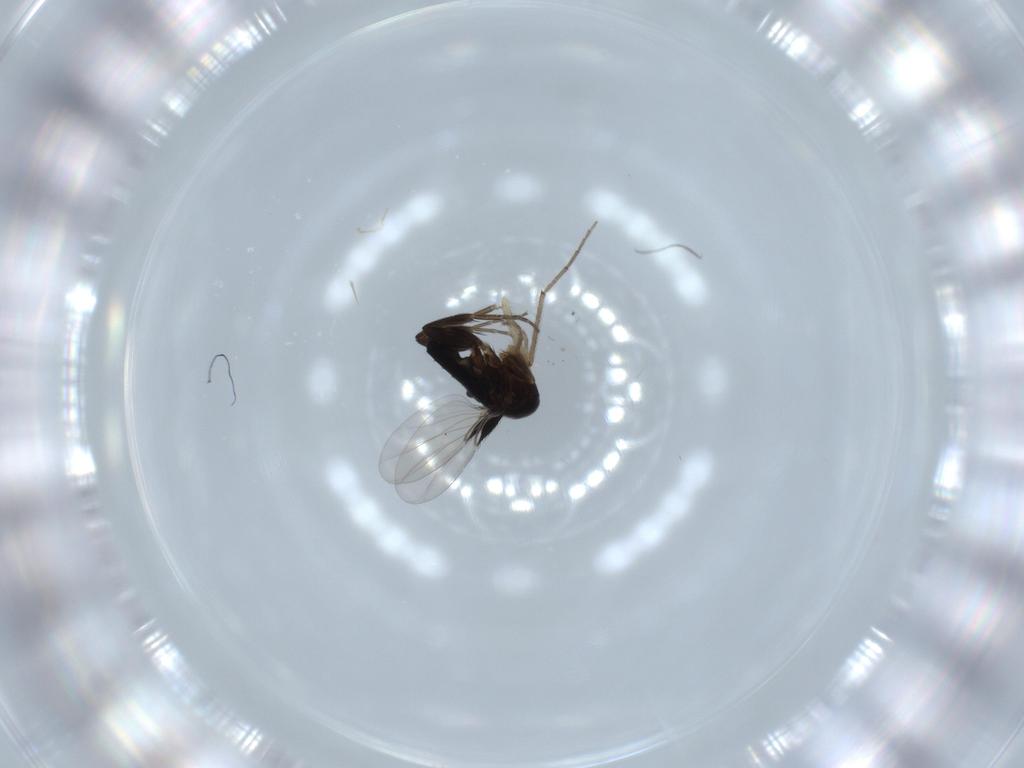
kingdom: Animalia
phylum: Arthropoda
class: Insecta
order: Diptera
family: Phoridae
